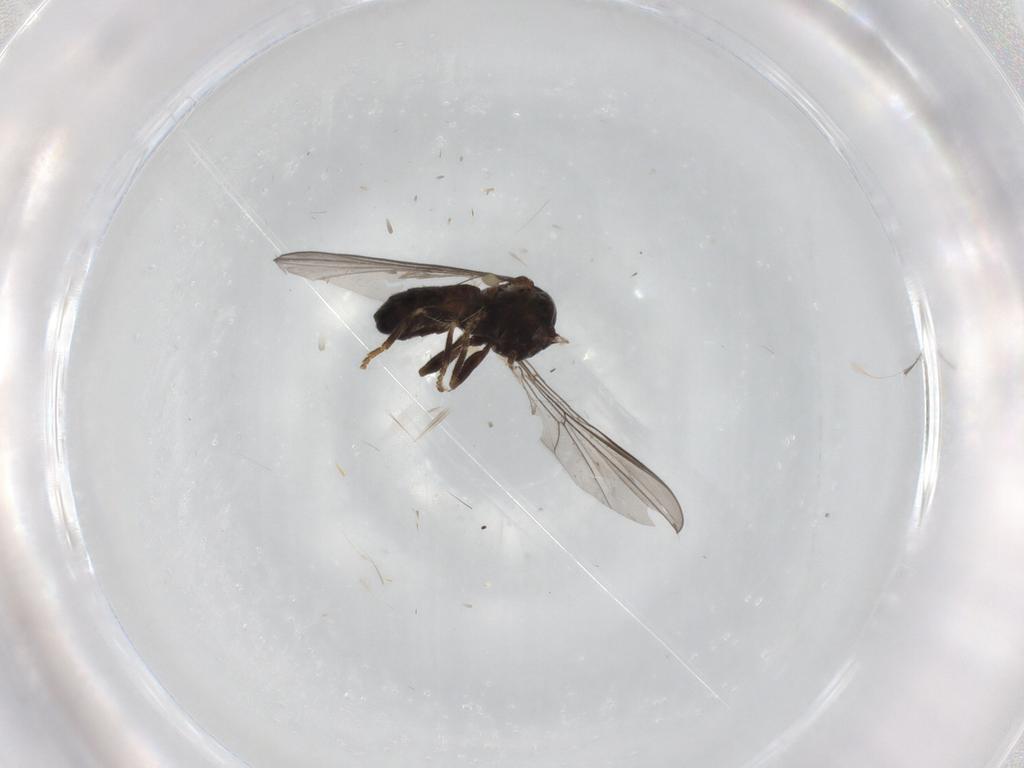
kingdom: Animalia
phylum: Arthropoda
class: Insecta
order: Diptera
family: Pipunculidae
